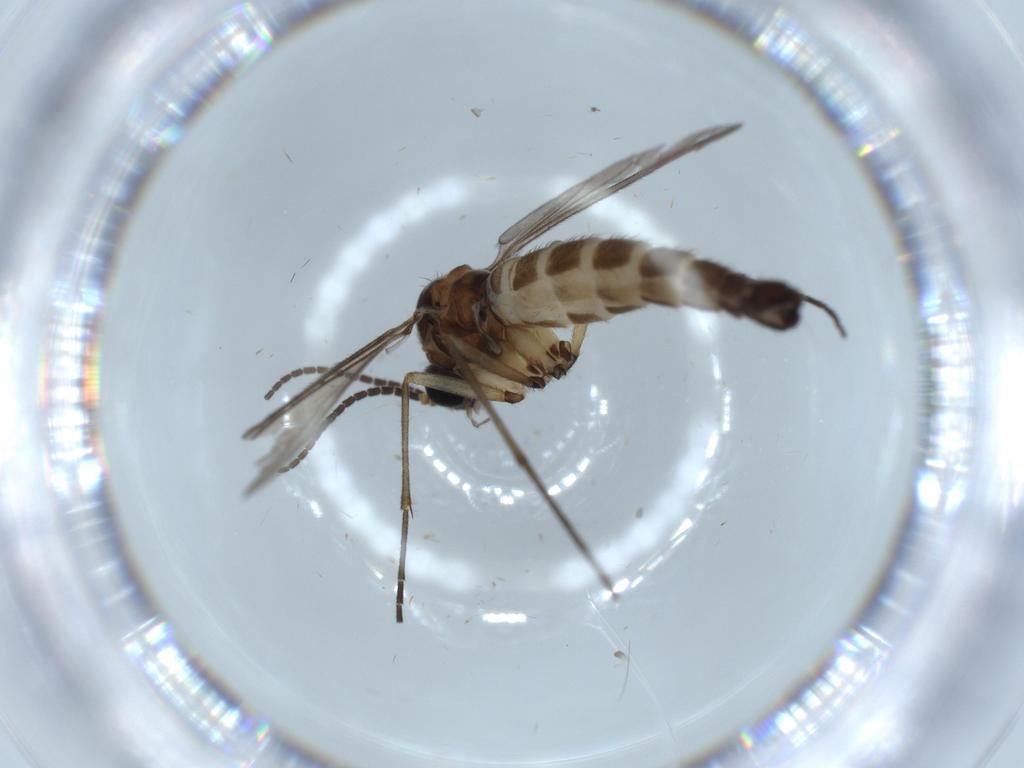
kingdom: Animalia
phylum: Arthropoda
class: Insecta
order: Diptera
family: Sciaridae
